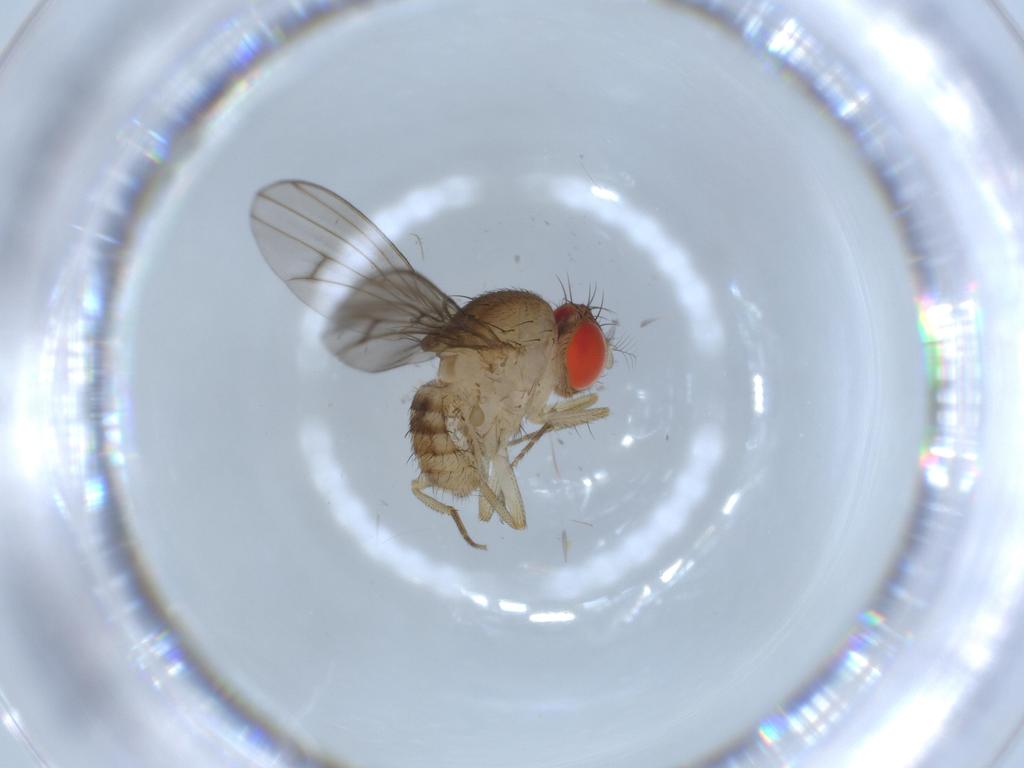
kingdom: Animalia
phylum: Arthropoda
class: Insecta
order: Diptera
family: Drosophilidae
